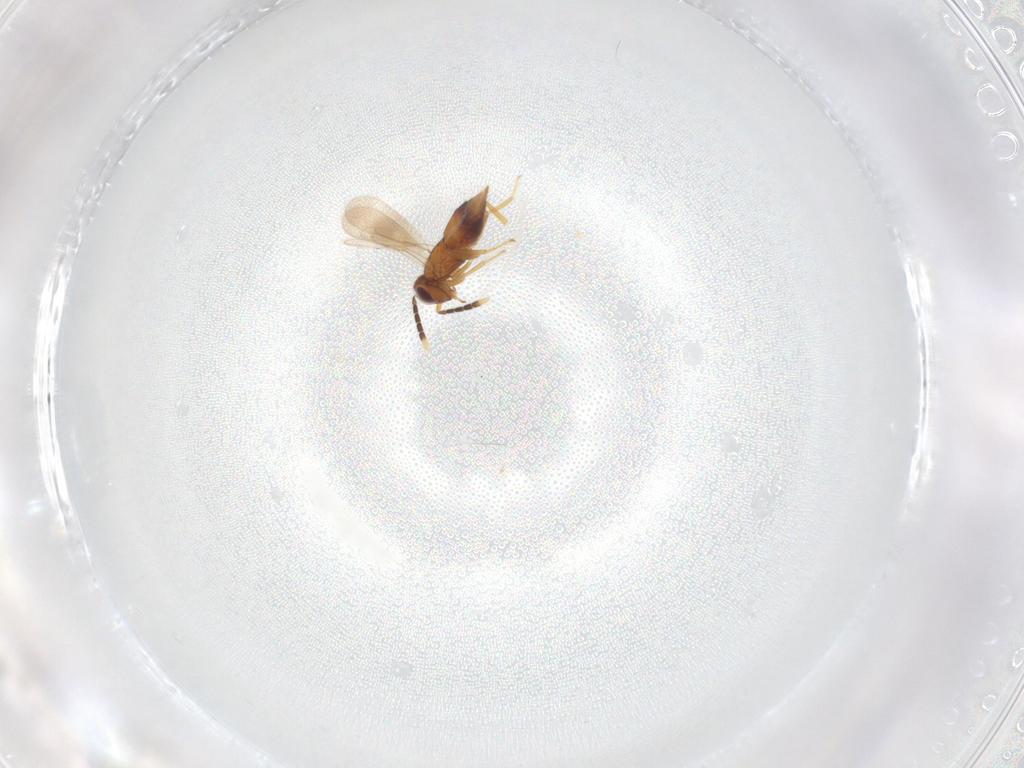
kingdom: Animalia
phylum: Arthropoda
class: Insecta
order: Hymenoptera
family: Aphelinidae
